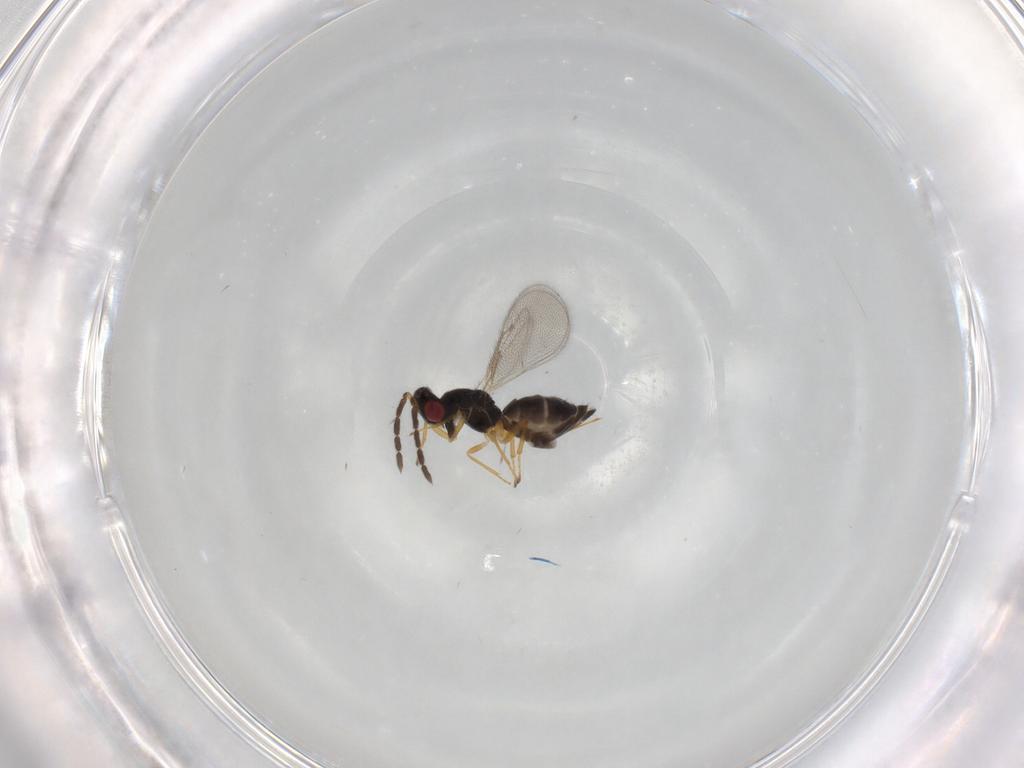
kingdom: Animalia
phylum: Arthropoda
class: Insecta
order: Hymenoptera
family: Eulophidae
